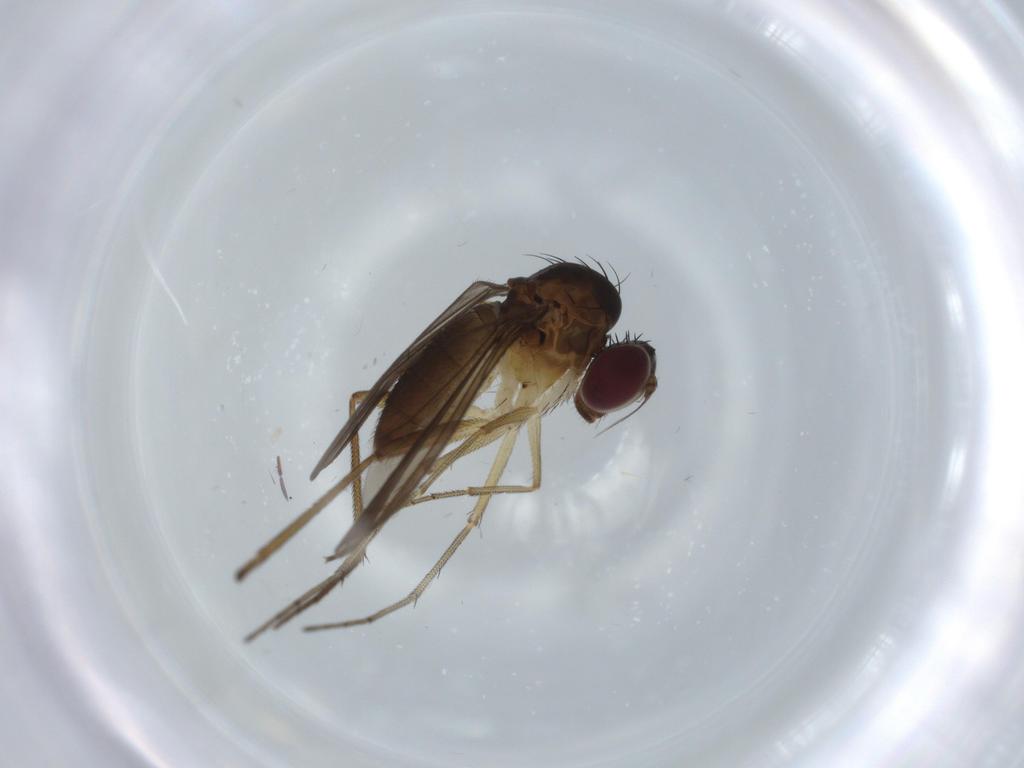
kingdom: Animalia
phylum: Arthropoda
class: Insecta
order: Diptera
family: Dolichopodidae
